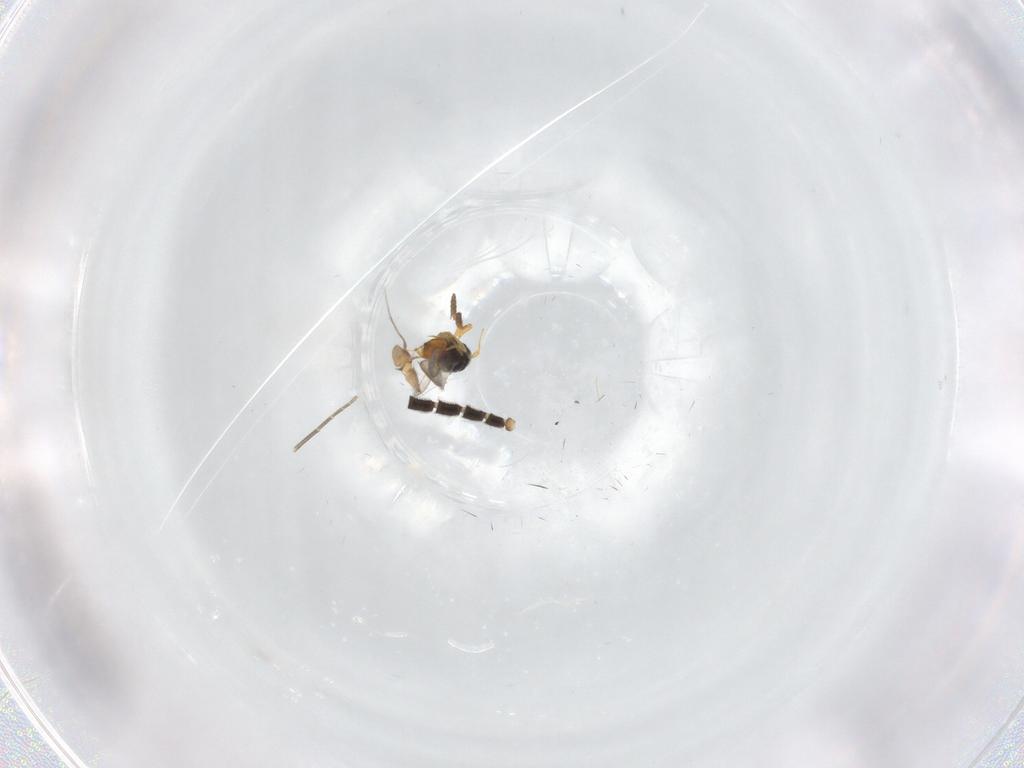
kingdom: Animalia
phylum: Arthropoda
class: Insecta
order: Hymenoptera
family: Scelionidae
